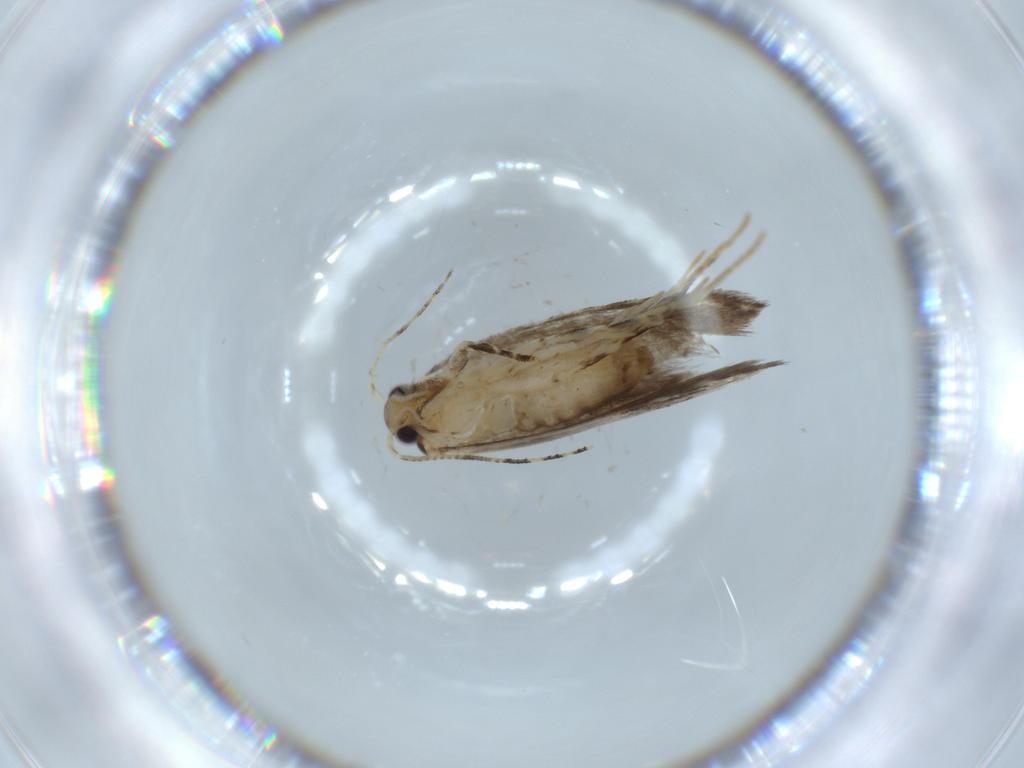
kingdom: Animalia
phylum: Arthropoda
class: Insecta
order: Lepidoptera
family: Tineidae
